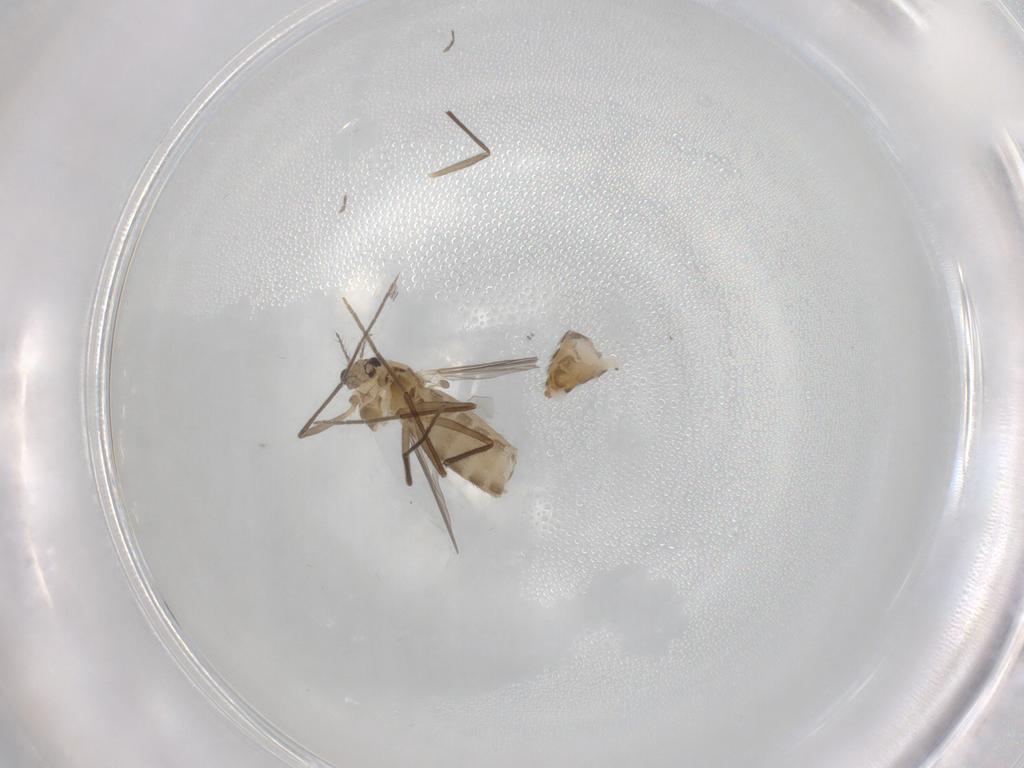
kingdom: Animalia
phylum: Arthropoda
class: Insecta
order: Diptera
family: Chironomidae
